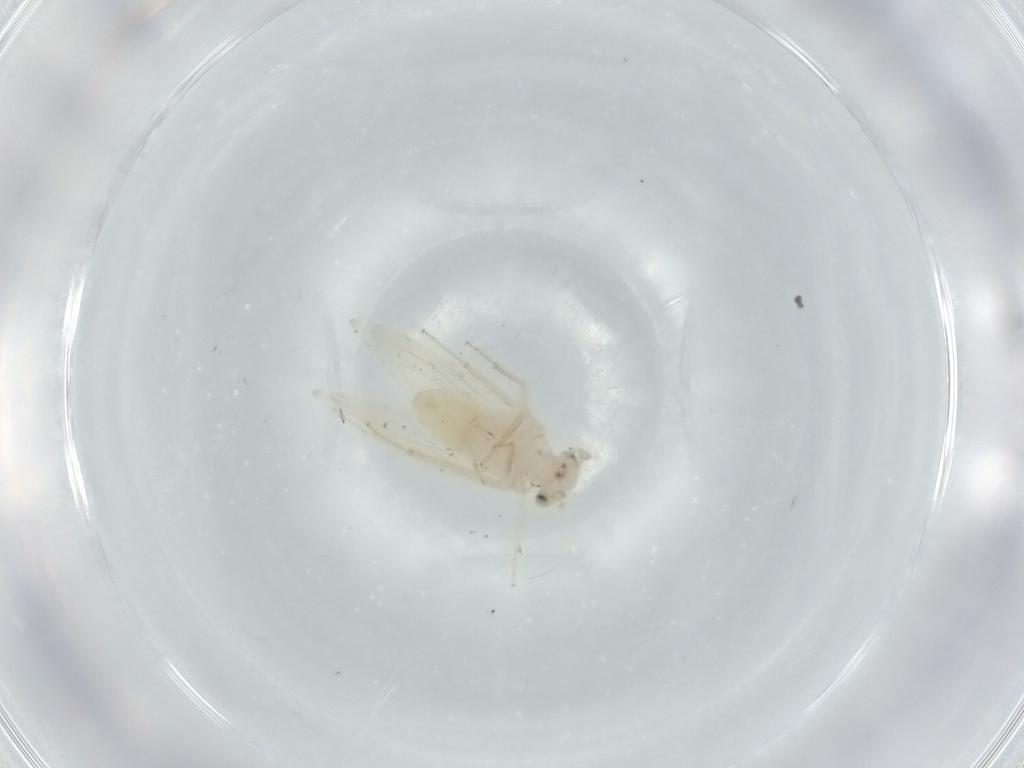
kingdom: Animalia
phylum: Arthropoda
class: Insecta
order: Psocodea
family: Lepidopsocidae
